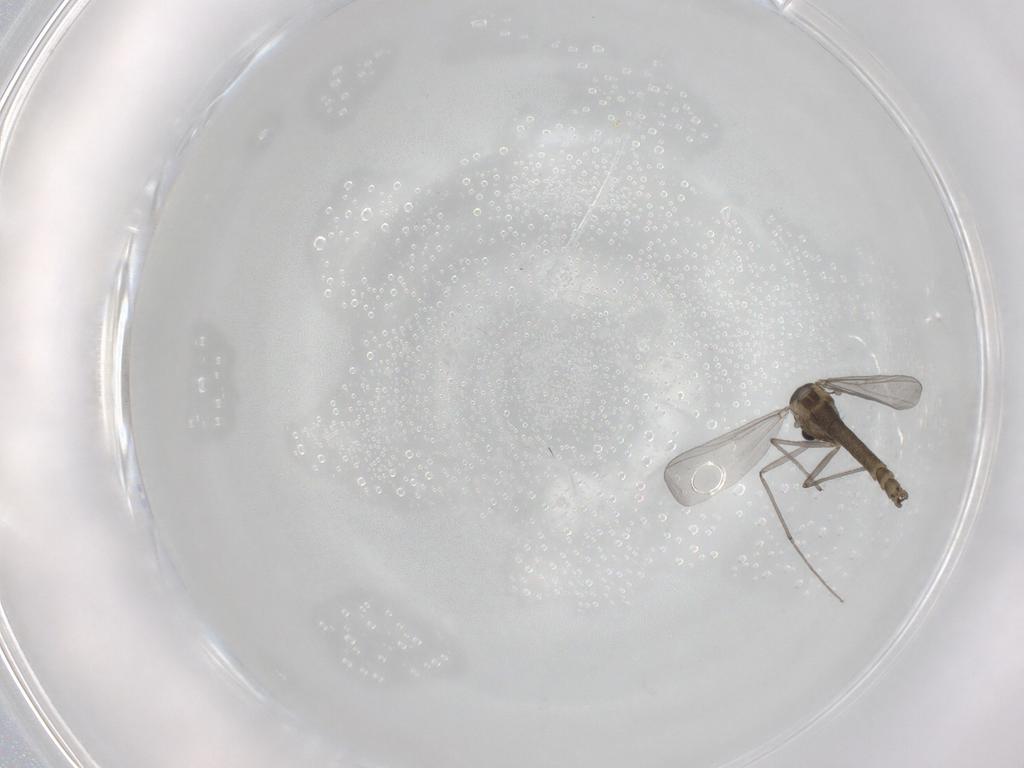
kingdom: Animalia
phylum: Arthropoda
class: Insecta
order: Diptera
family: Chironomidae
